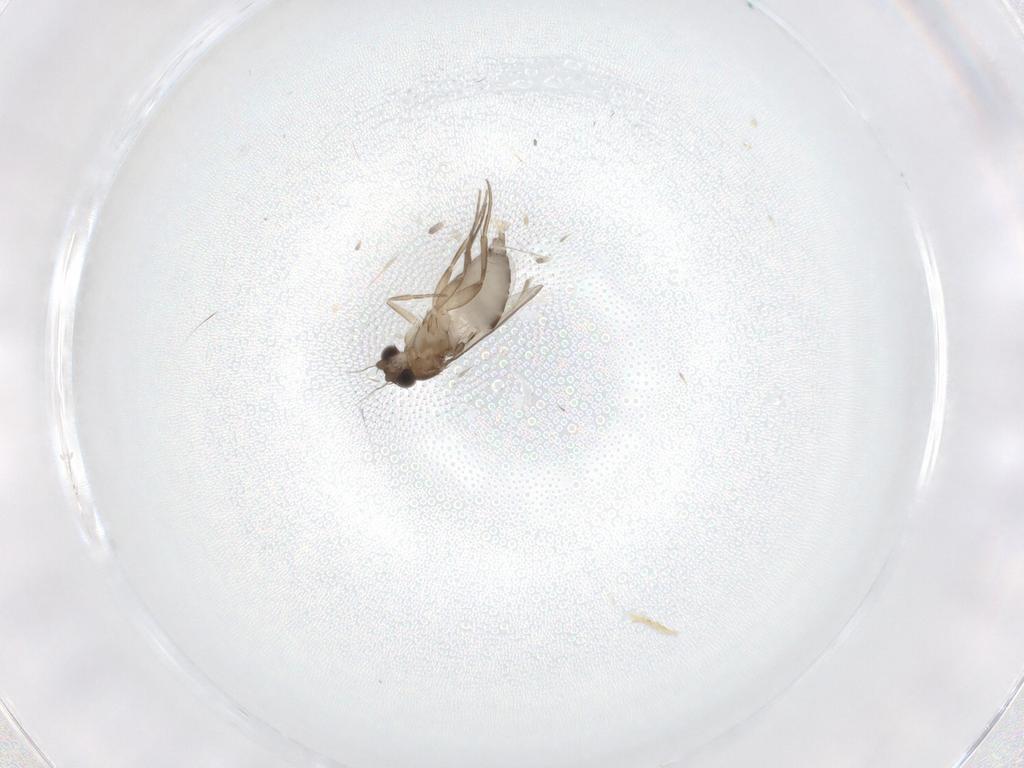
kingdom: Animalia
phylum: Arthropoda
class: Insecta
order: Diptera
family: Phoridae
